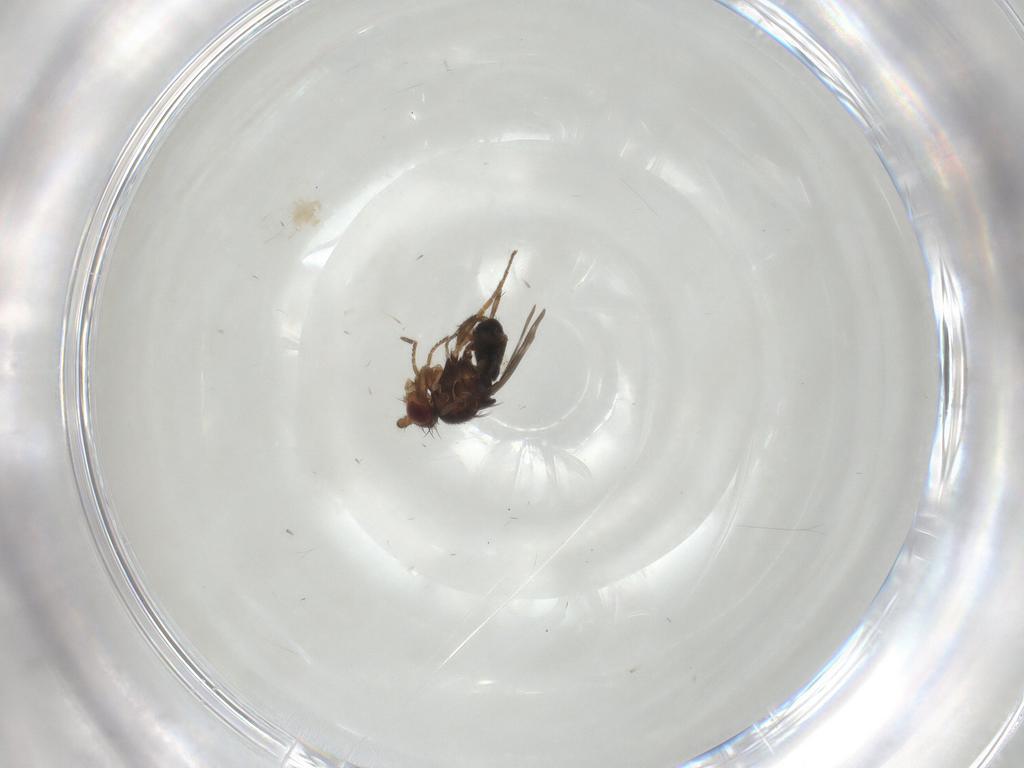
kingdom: Animalia
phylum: Arthropoda
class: Insecta
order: Diptera
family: Sphaeroceridae
